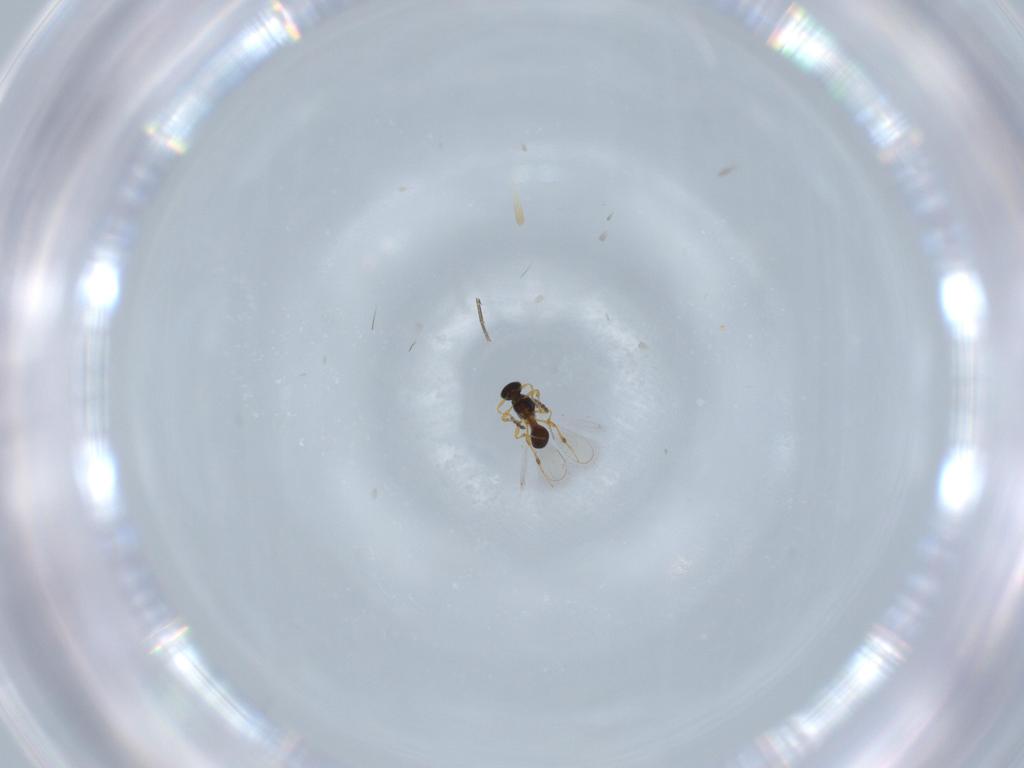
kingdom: Animalia
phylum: Arthropoda
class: Insecta
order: Hymenoptera
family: Platygastridae
